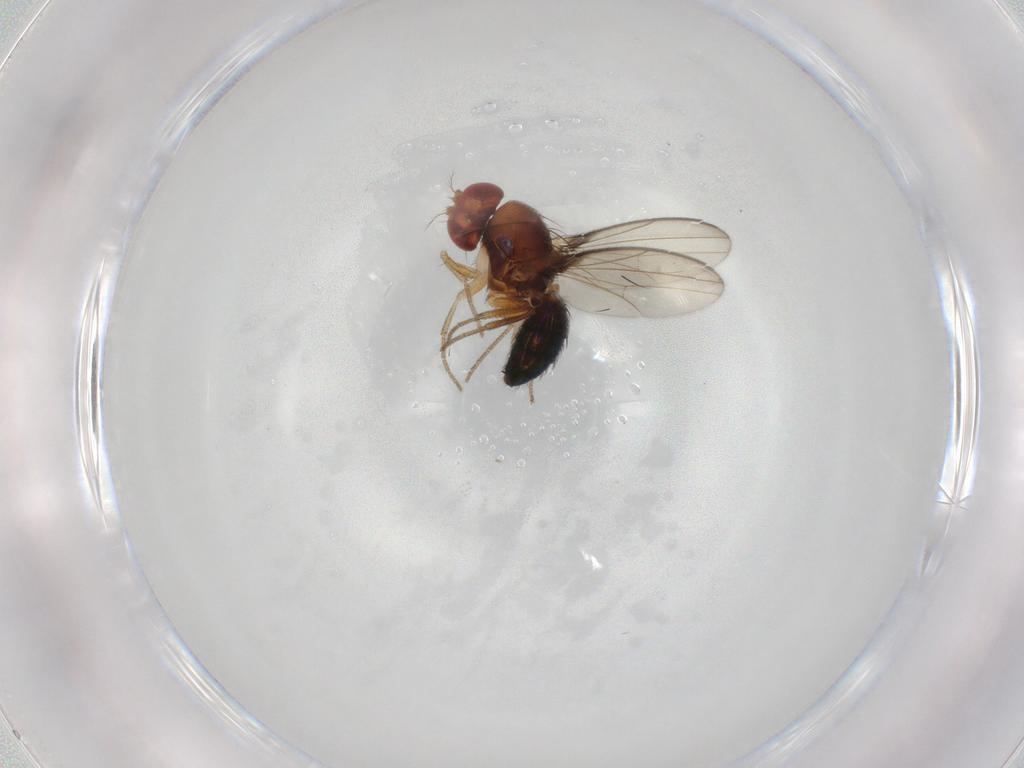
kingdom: Animalia
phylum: Arthropoda
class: Insecta
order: Diptera
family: Drosophilidae
